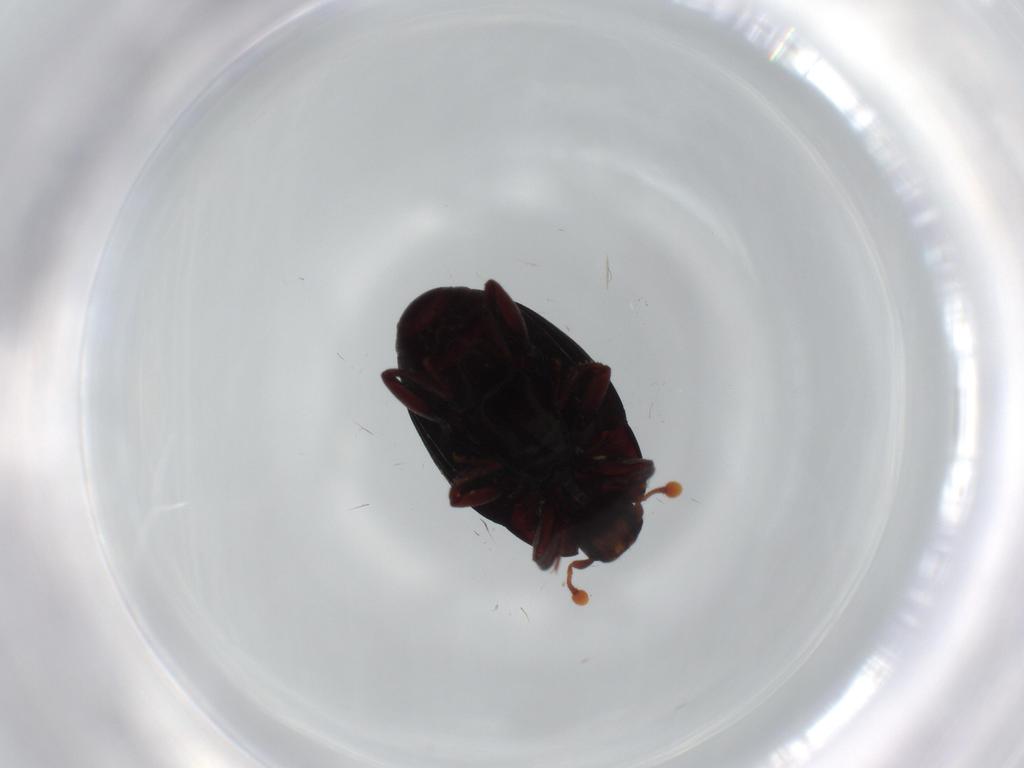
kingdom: Animalia
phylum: Arthropoda
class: Insecta
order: Coleoptera
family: Histeridae
